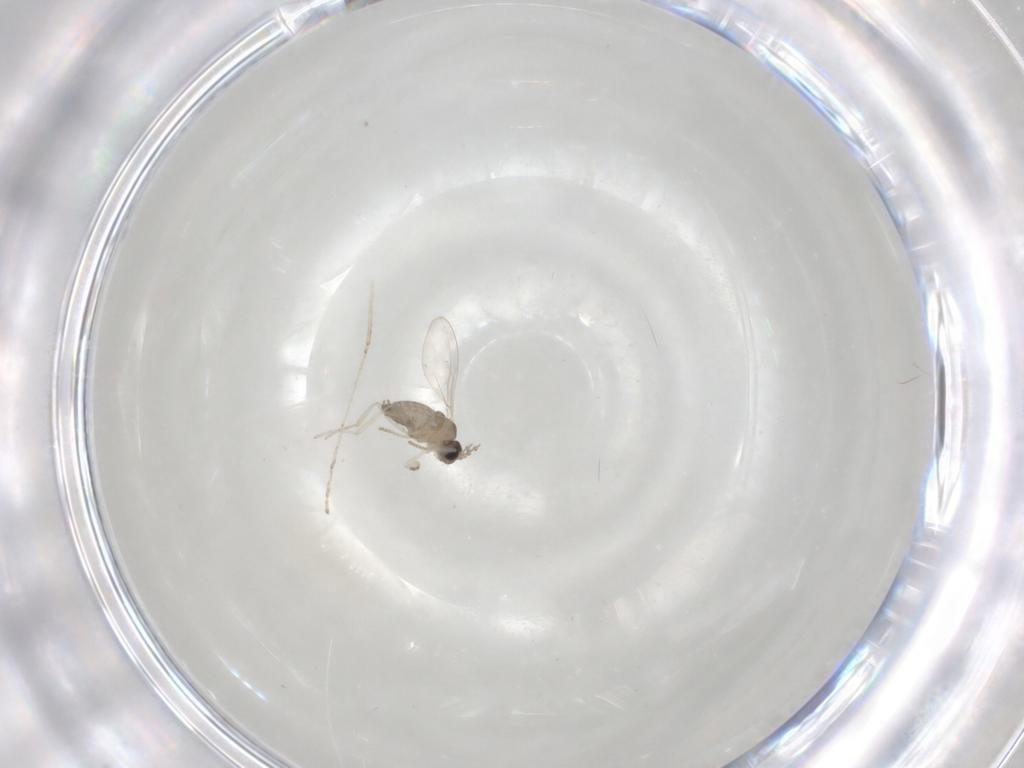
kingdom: Animalia
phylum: Arthropoda
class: Insecta
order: Diptera
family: Cecidomyiidae
